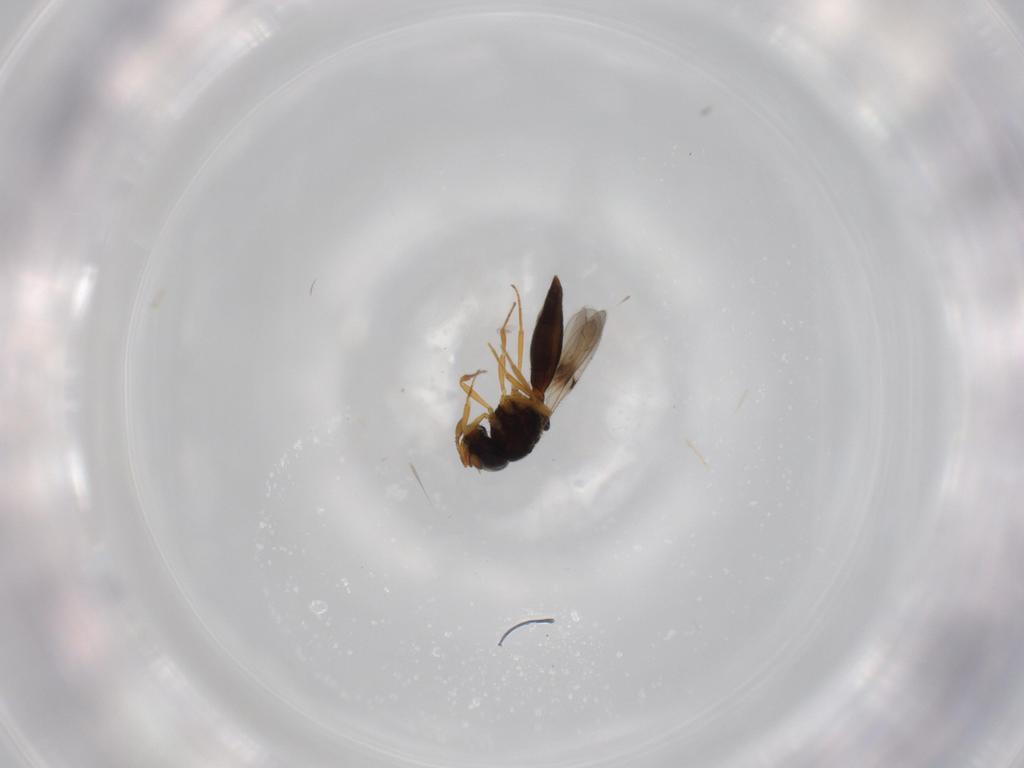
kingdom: Animalia
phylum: Arthropoda
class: Insecta
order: Hymenoptera
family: Scelionidae
